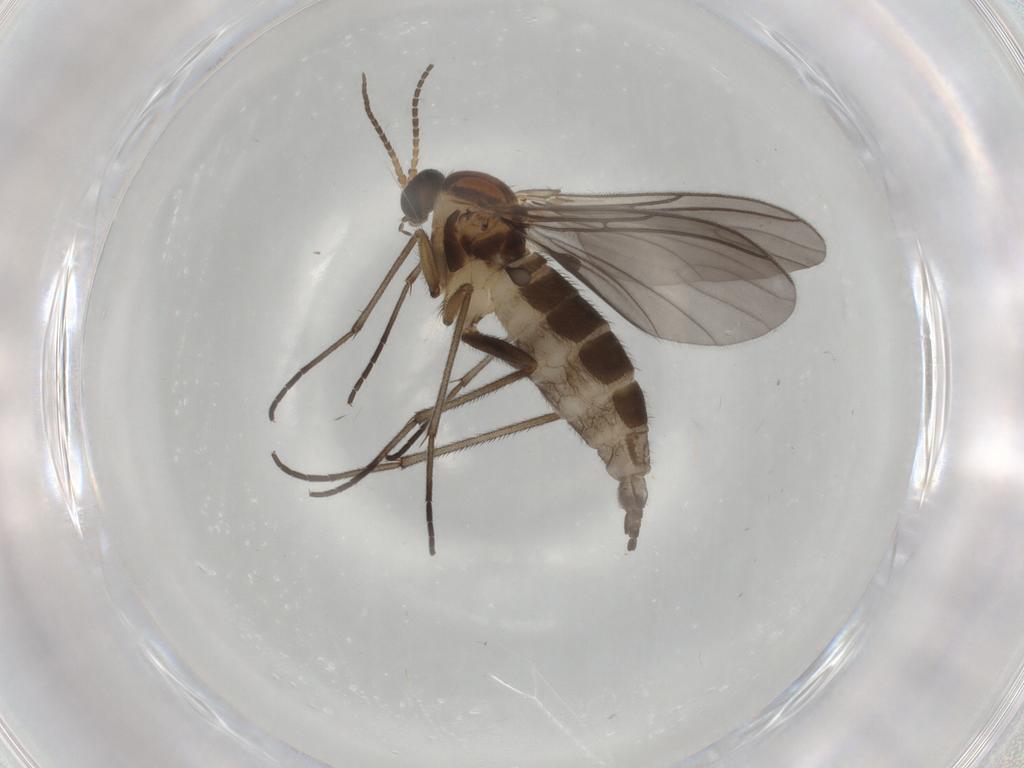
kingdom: Animalia
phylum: Arthropoda
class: Insecta
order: Diptera
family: Sciaridae
